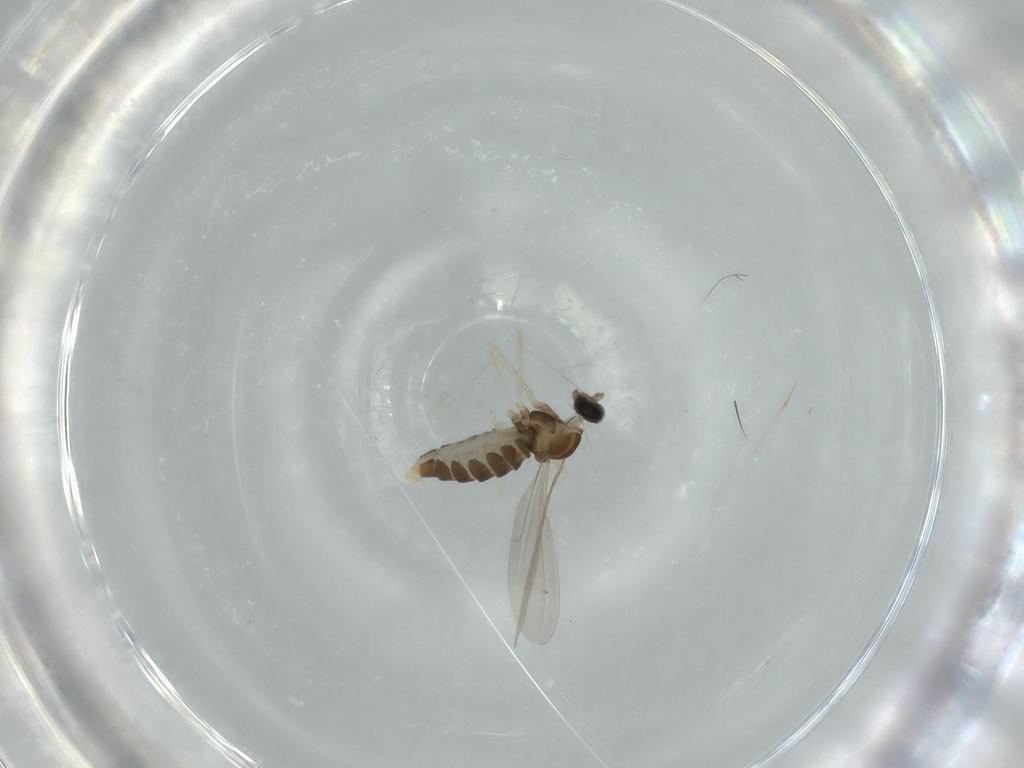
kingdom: Animalia
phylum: Arthropoda
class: Insecta
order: Diptera
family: Cecidomyiidae
